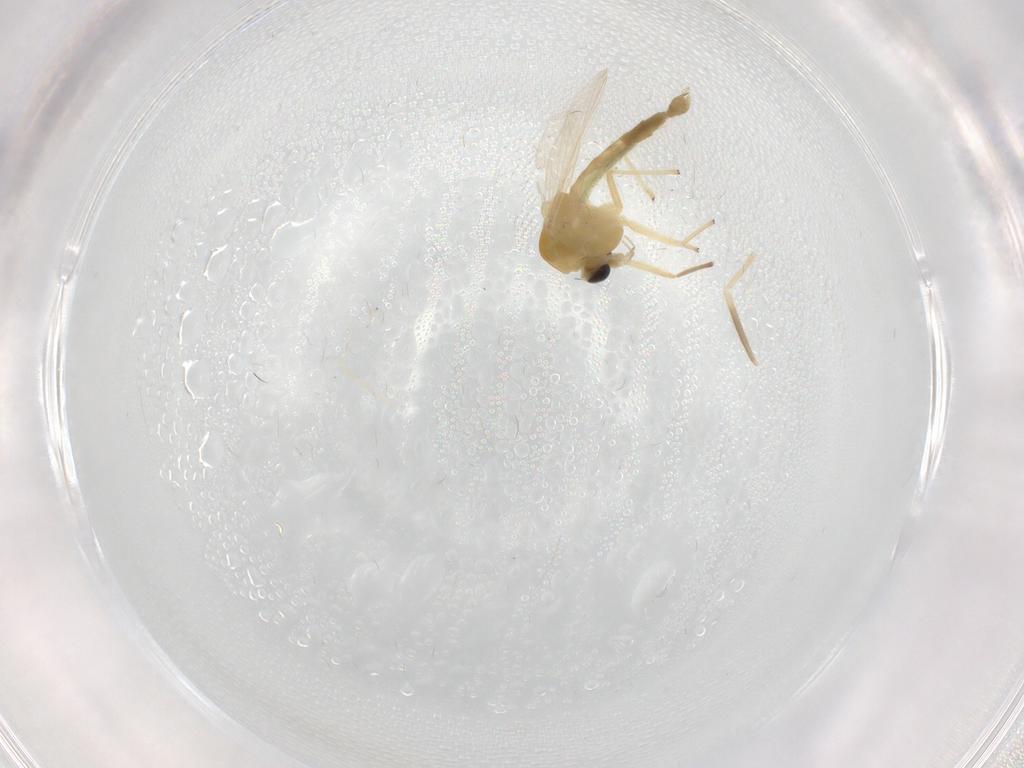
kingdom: Animalia
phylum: Arthropoda
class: Insecta
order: Diptera
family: Chironomidae
